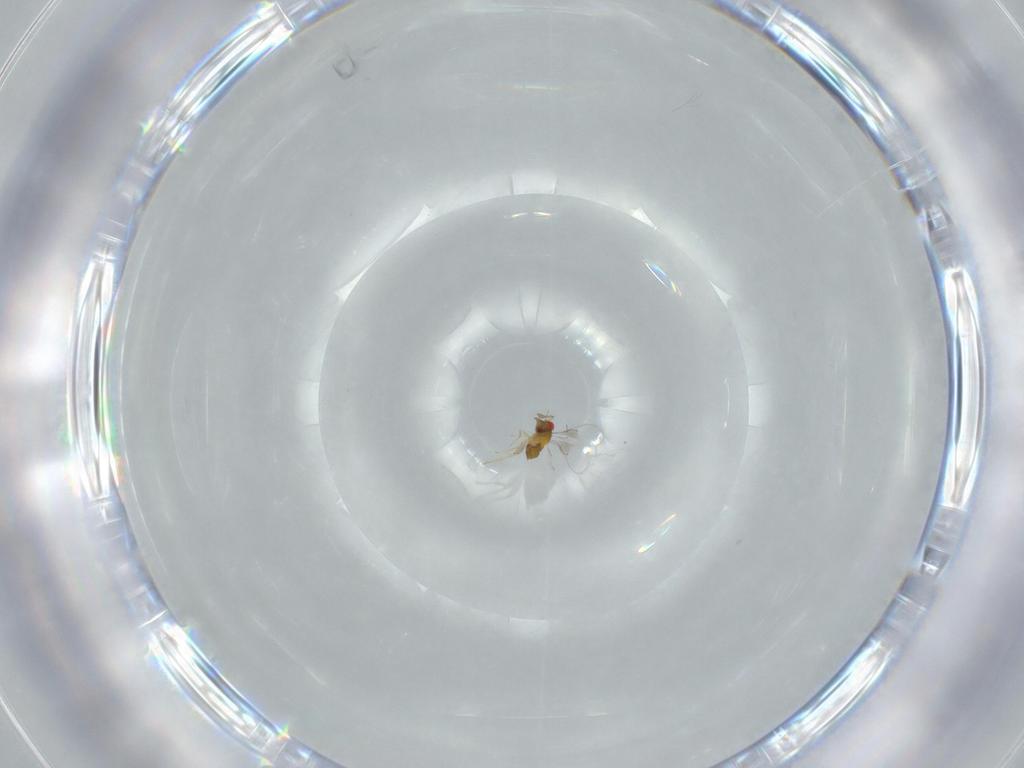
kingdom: Animalia
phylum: Arthropoda
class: Insecta
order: Hymenoptera
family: Trichogrammatidae
